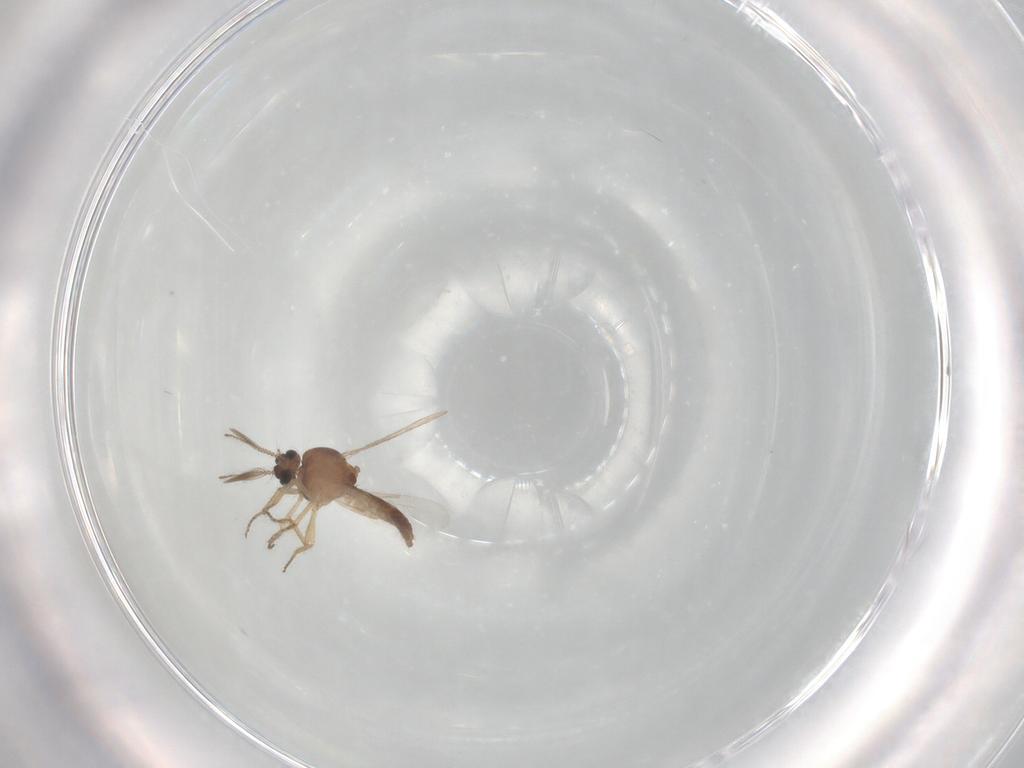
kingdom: Animalia
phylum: Arthropoda
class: Insecta
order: Diptera
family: Ceratopogonidae
